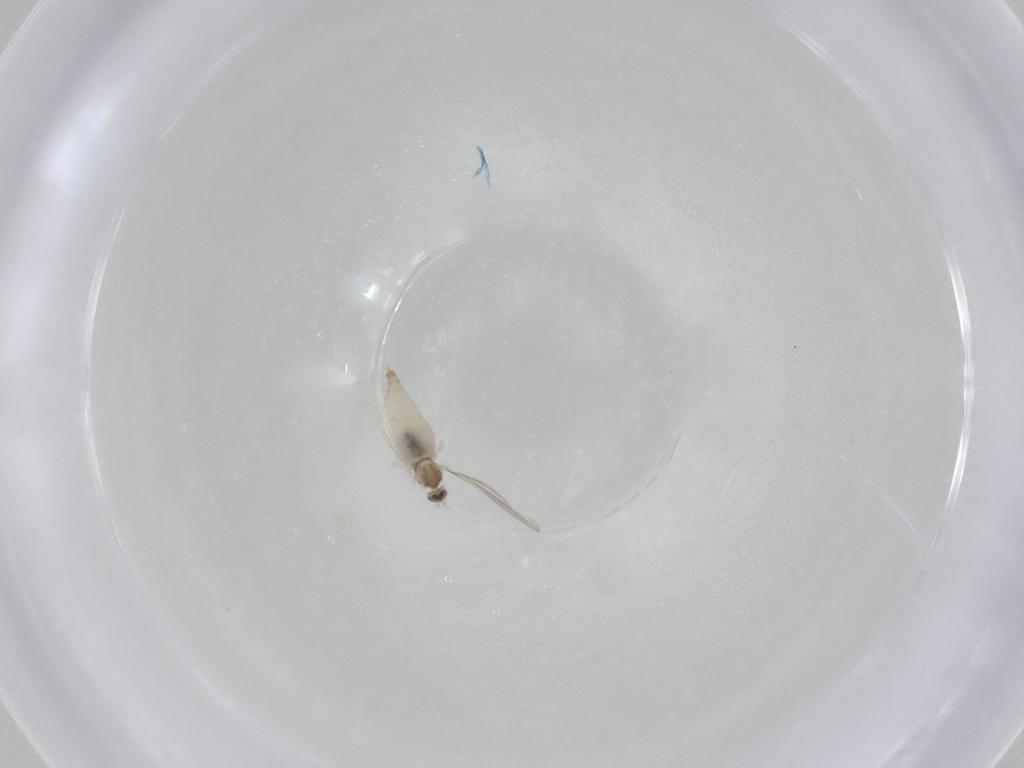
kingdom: Animalia
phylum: Arthropoda
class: Insecta
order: Diptera
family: Cecidomyiidae
